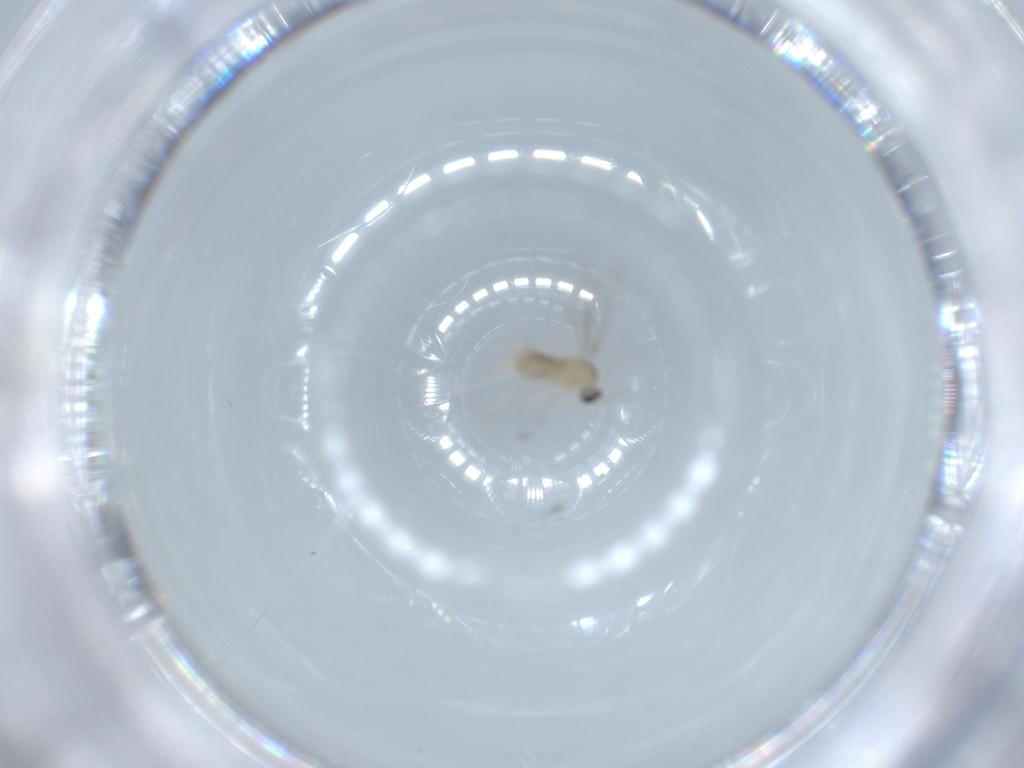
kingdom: Animalia
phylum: Arthropoda
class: Insecta
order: Diptera
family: Cecidomyiidae
